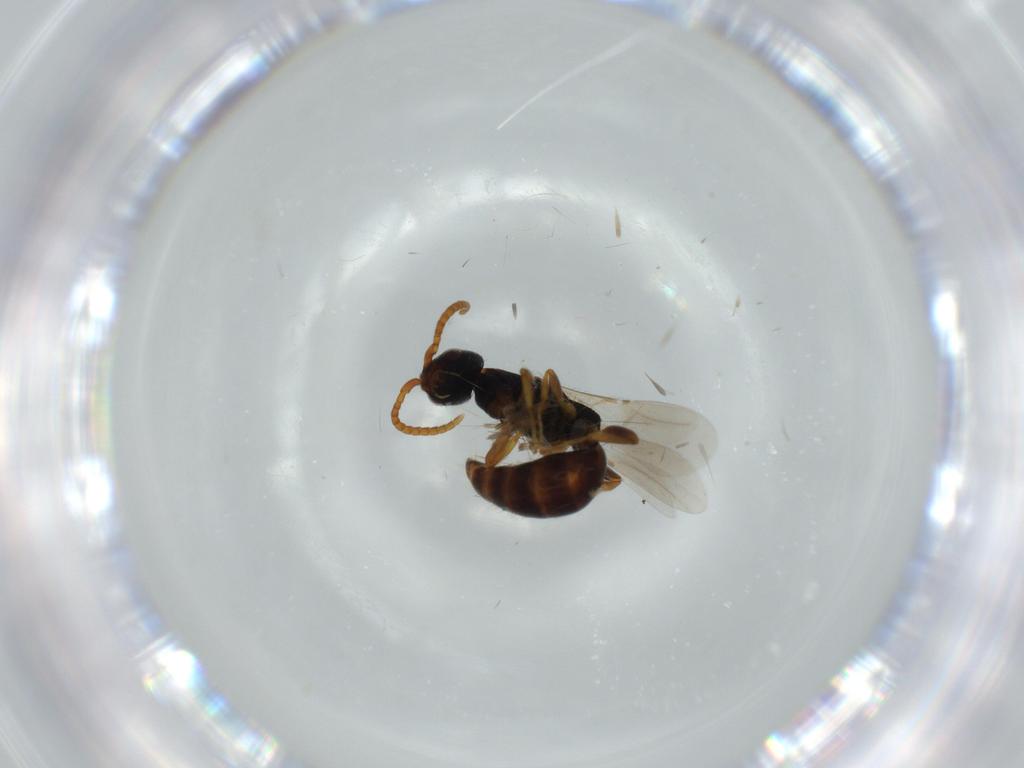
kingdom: Animalia
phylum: Arthropoda
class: Insecta
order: Hymenoptera
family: Bethylidae
